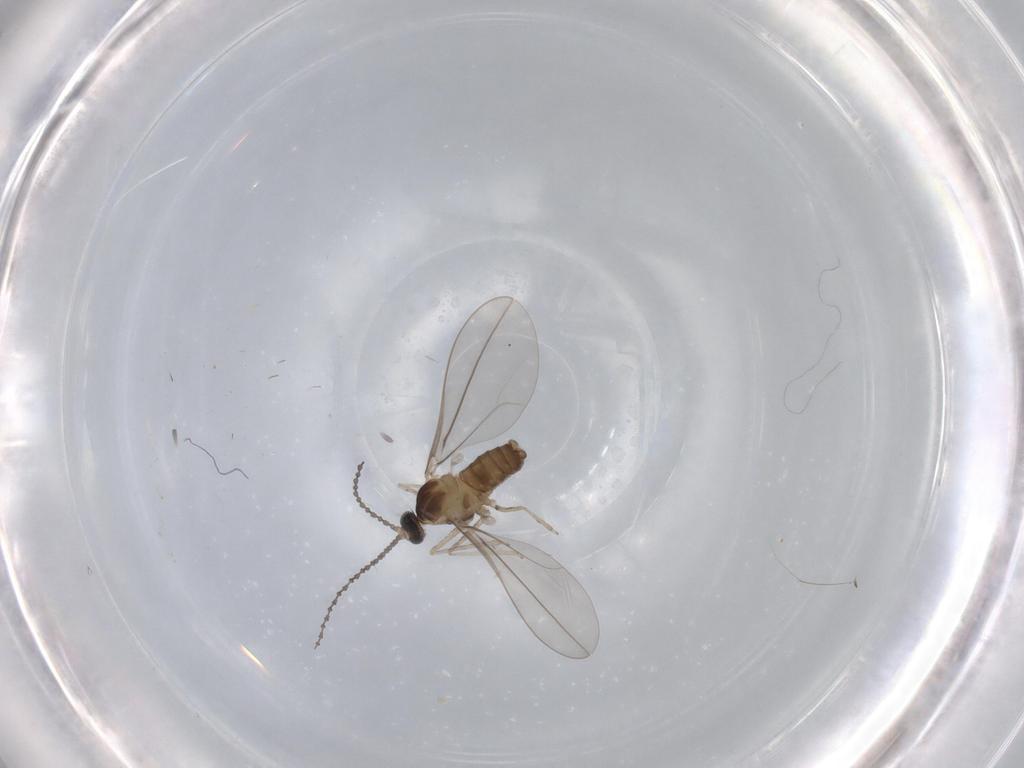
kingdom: Animalia
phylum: Arthropoda
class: Insecta
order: Diptera
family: Cecidomyiidae
